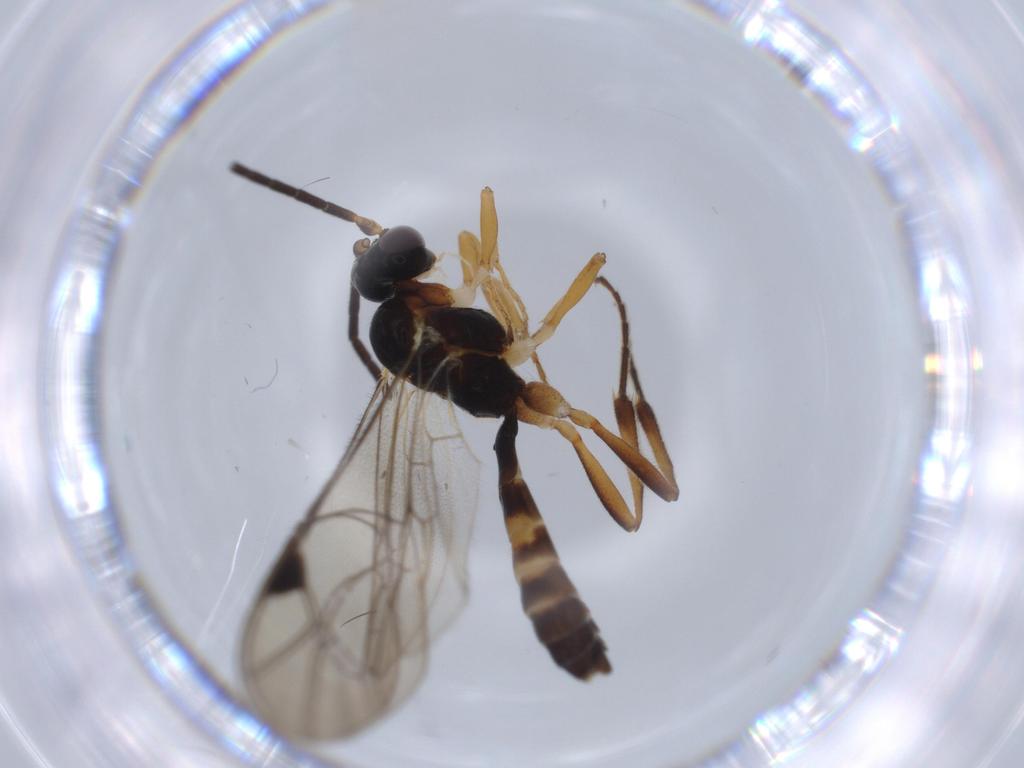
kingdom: Animalia
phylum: Arthropoda
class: Insecta
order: Hymenoptera
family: Ichneumonidae
